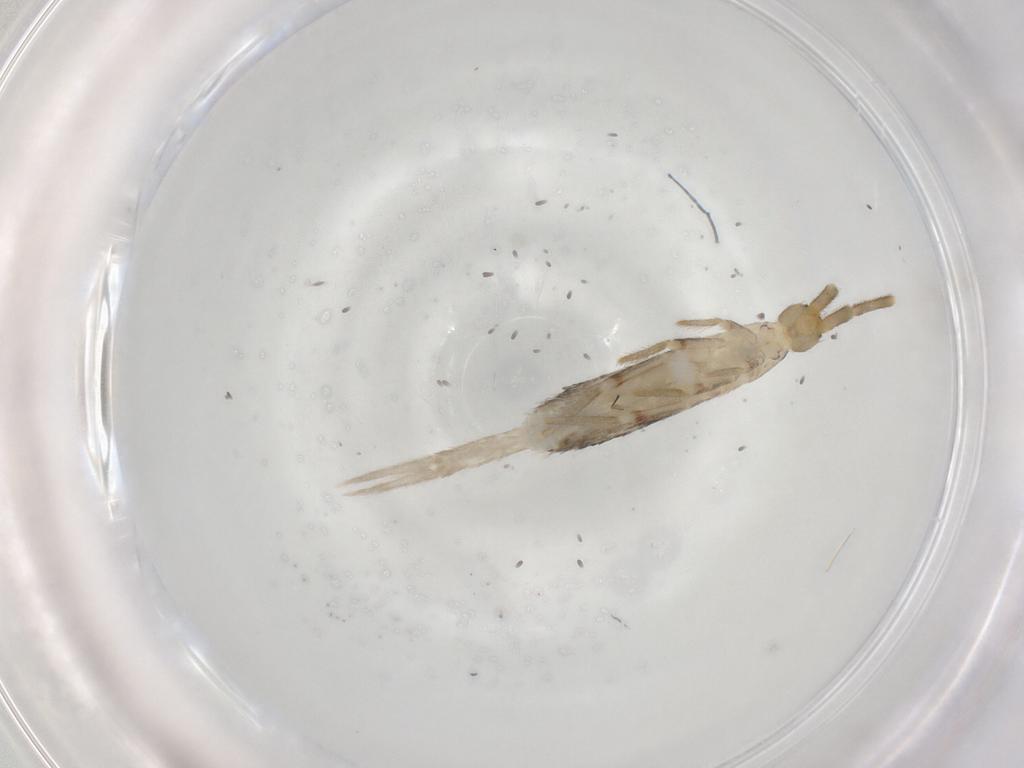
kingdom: Animalia
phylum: Arthropoda
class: Collembola
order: Poduromorpha
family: Hypogastruridae
